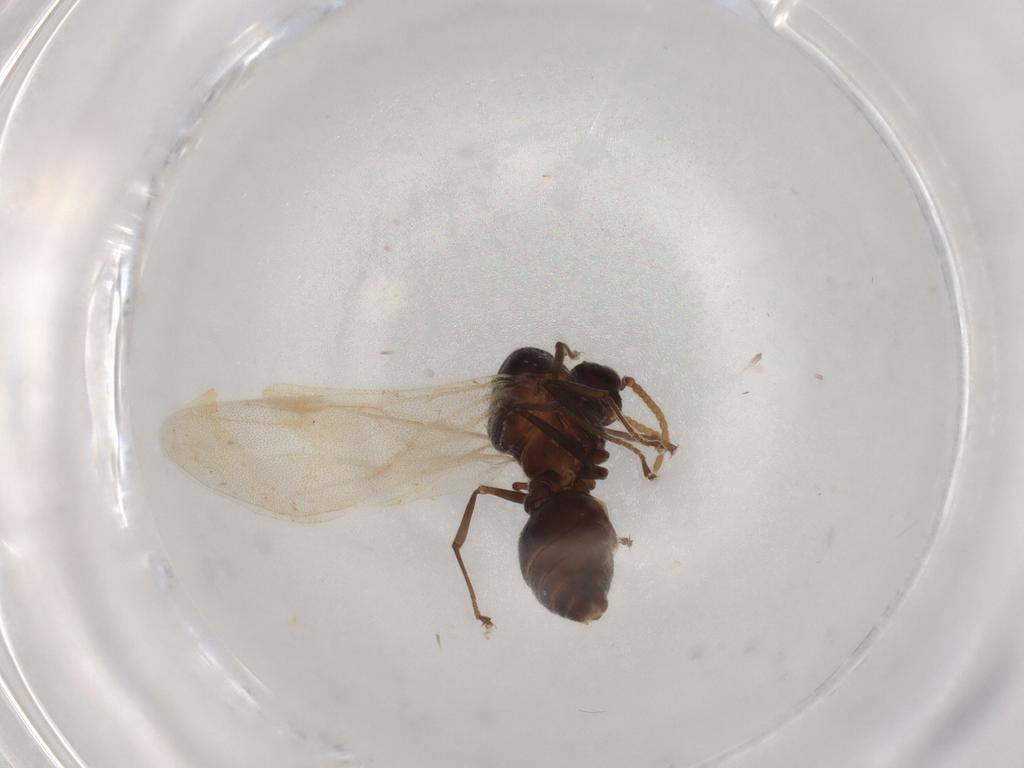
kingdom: Animalia
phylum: Arthropoda
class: Insecta
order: Hymenoptera
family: Formicidae
